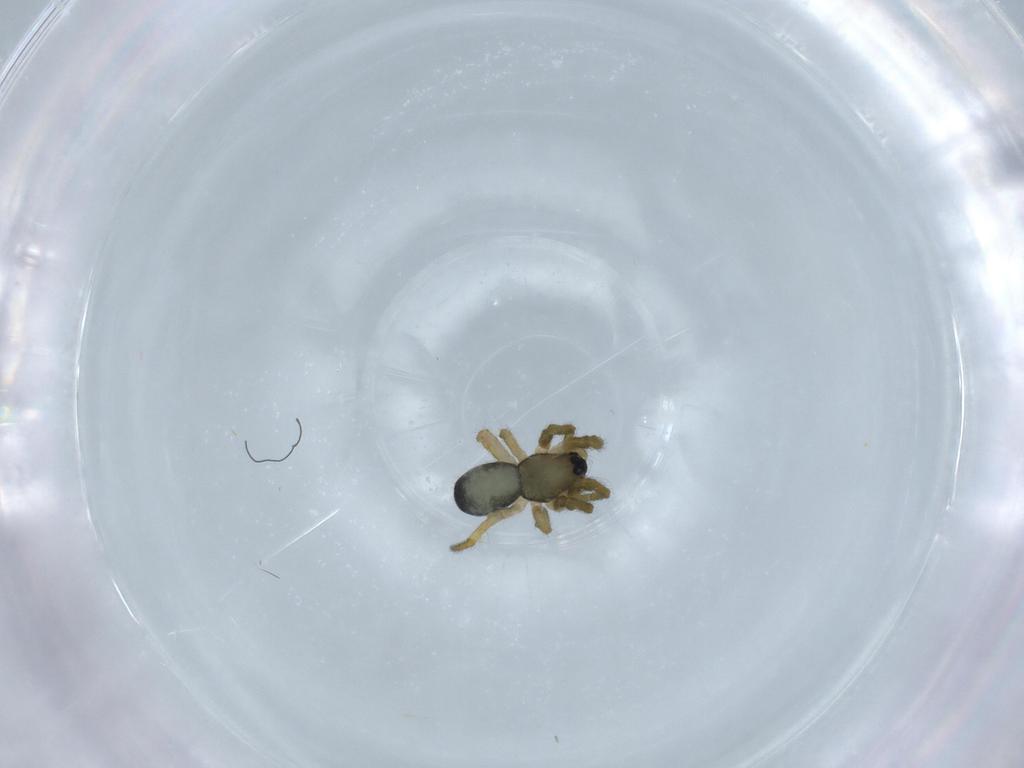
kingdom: Animalia
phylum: Arthropoda
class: Arachnida
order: Araneae
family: Araneidae
